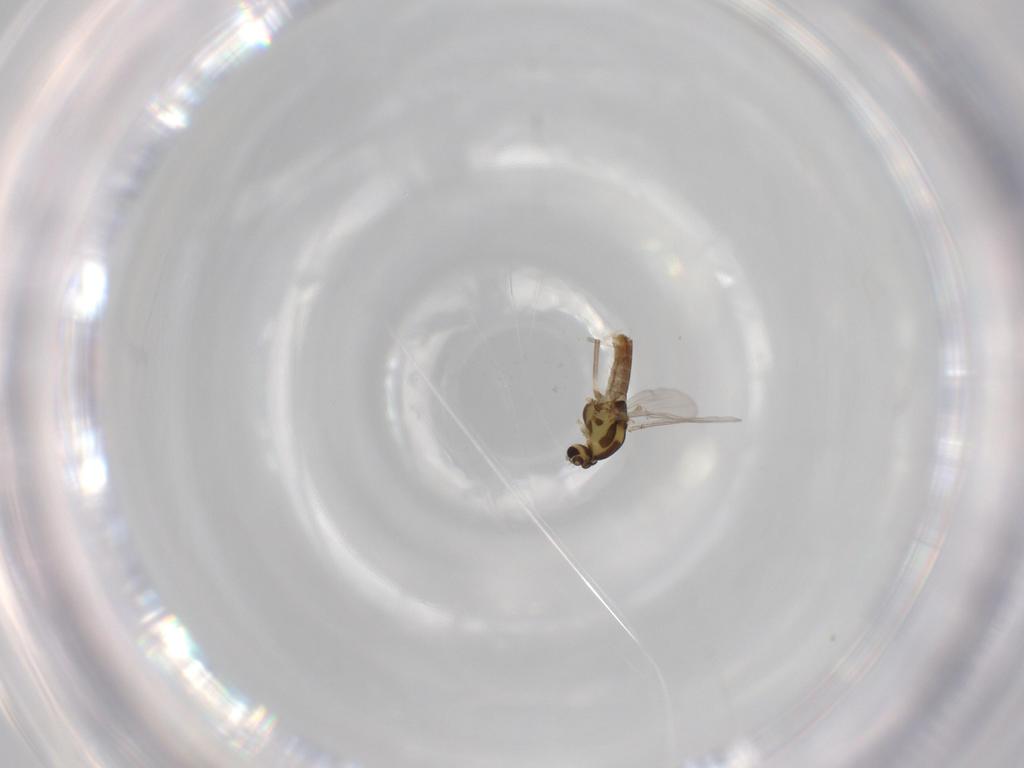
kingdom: Animalia
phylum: Arthropoda
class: Insecta
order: Diptera
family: Chironomidae
